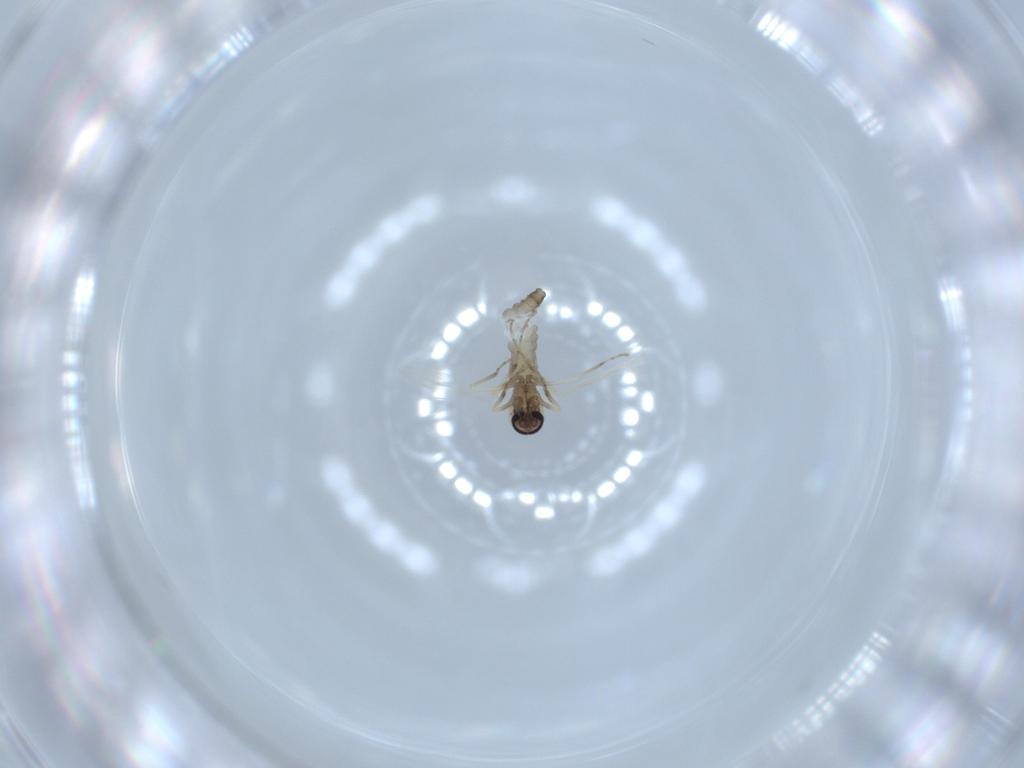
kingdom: Animalia
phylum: Arthropoda
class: Insecta
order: Diptera
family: Ceratopogonidae
